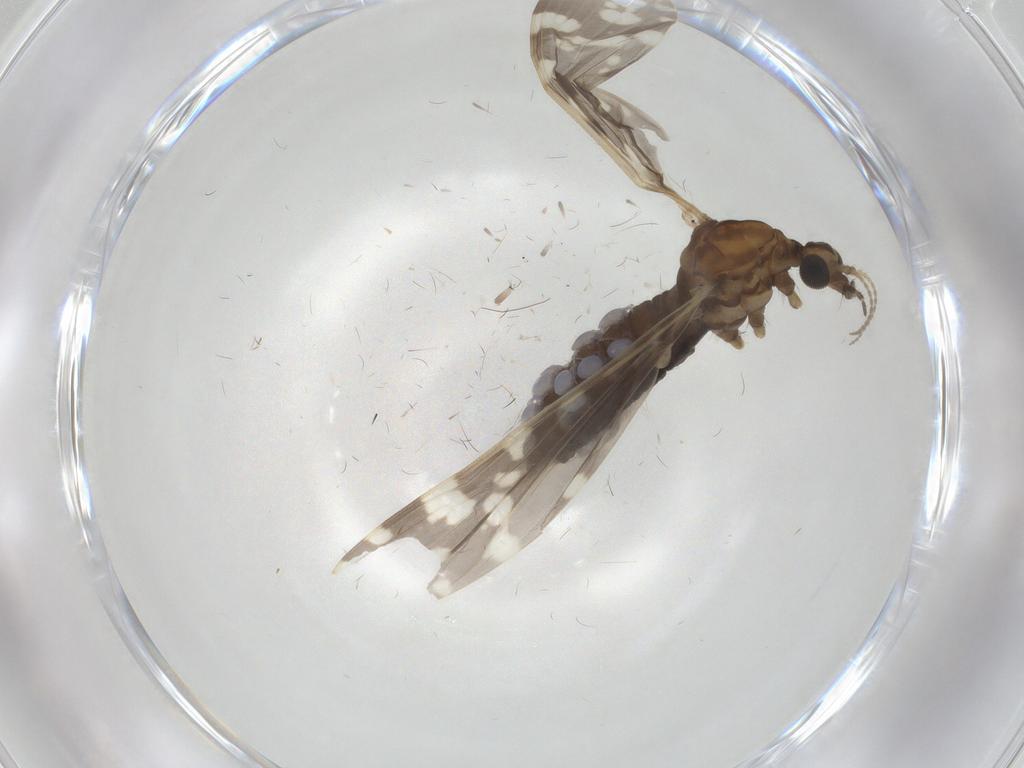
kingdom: Animalia
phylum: Arthropoda
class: Insecta
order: Diptera
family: Limoniidae
